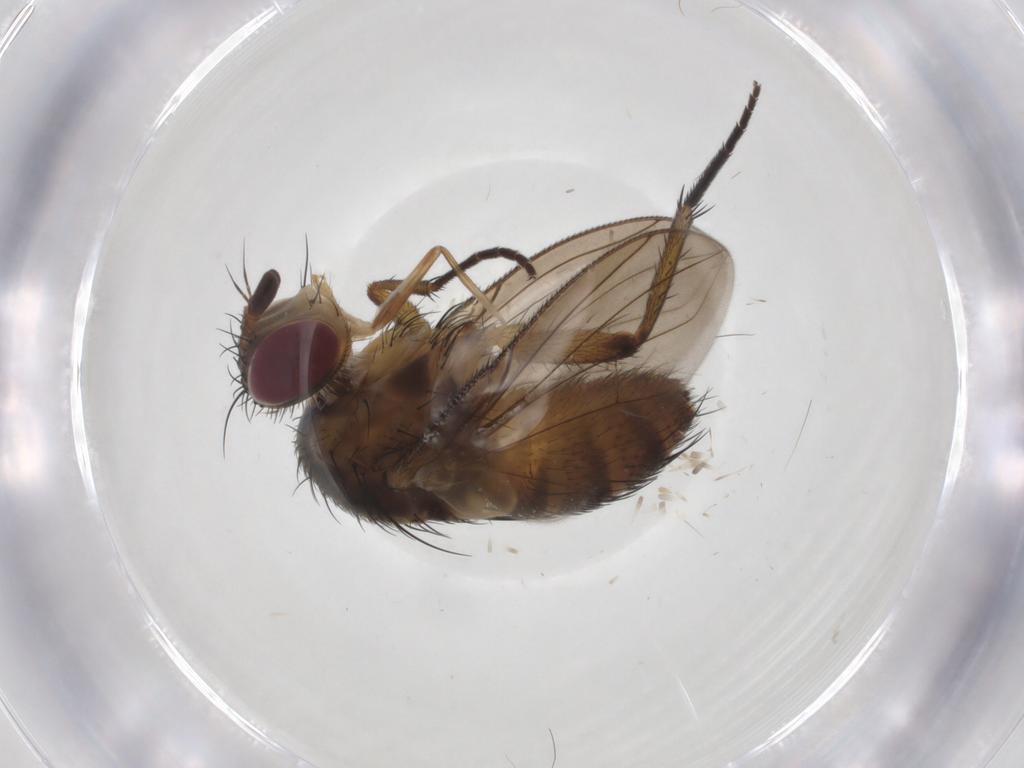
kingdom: Animalia
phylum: Arthropoda
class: Insecta
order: Diptera
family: Tachinidae
